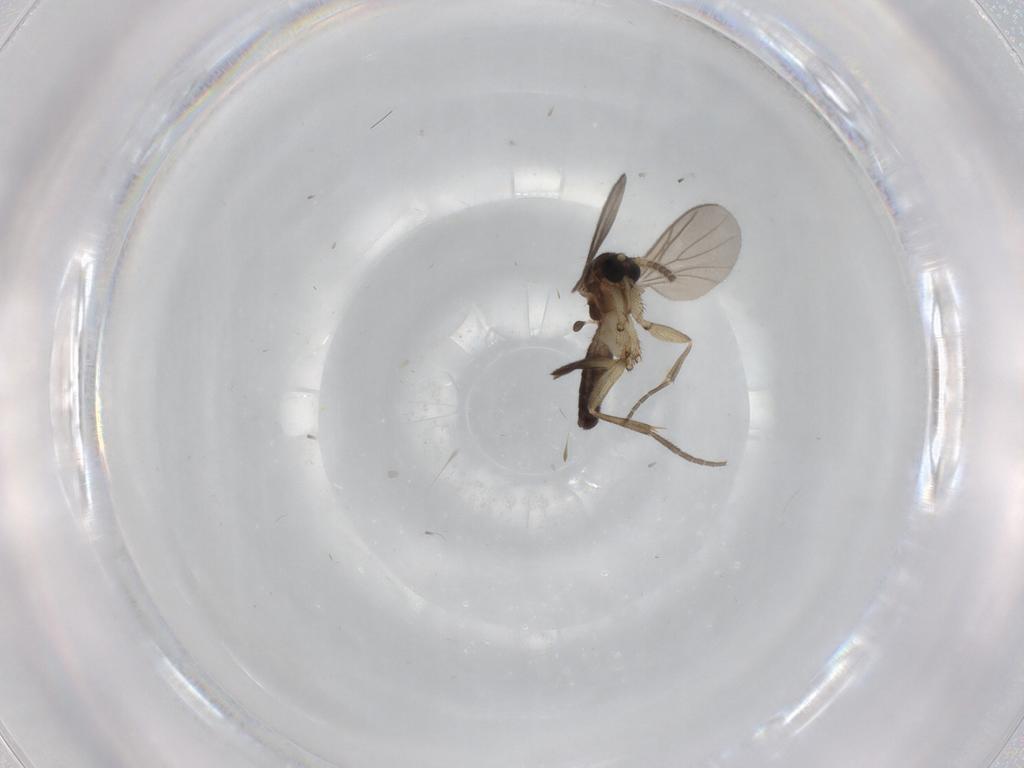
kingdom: Animalia
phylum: Arthropoda
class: Insecta
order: Diptera
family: Mycetophilidae
